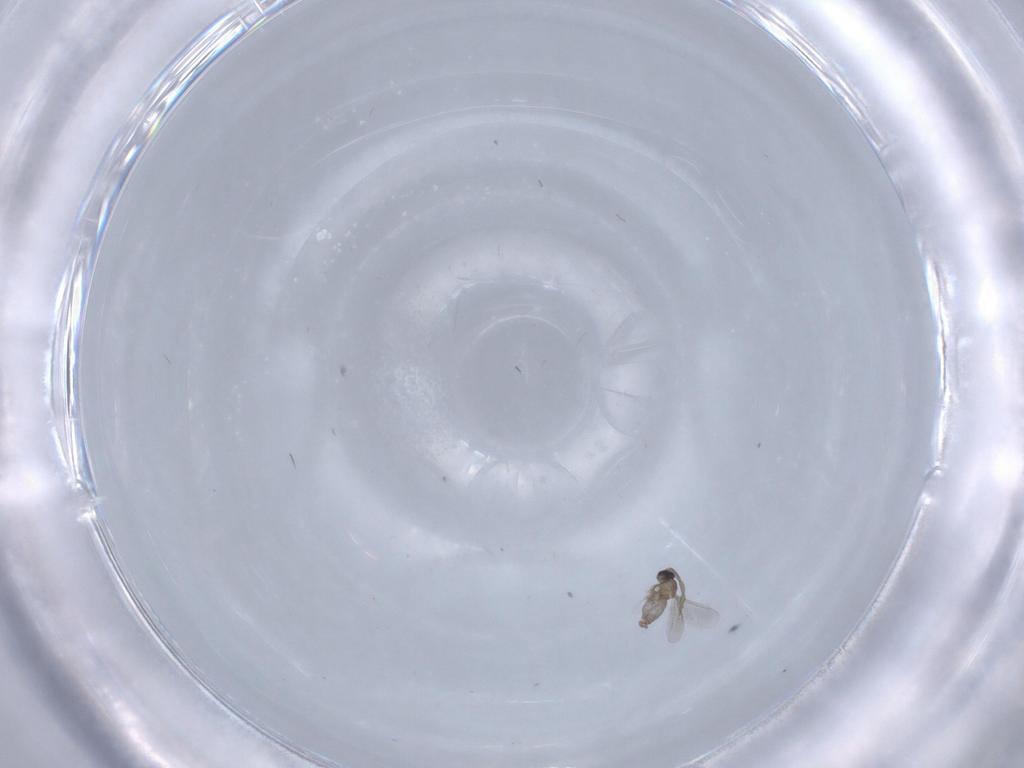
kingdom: Animalia
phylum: Arthropoda
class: Insecta
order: Diptera
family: Cecidomyiidae
